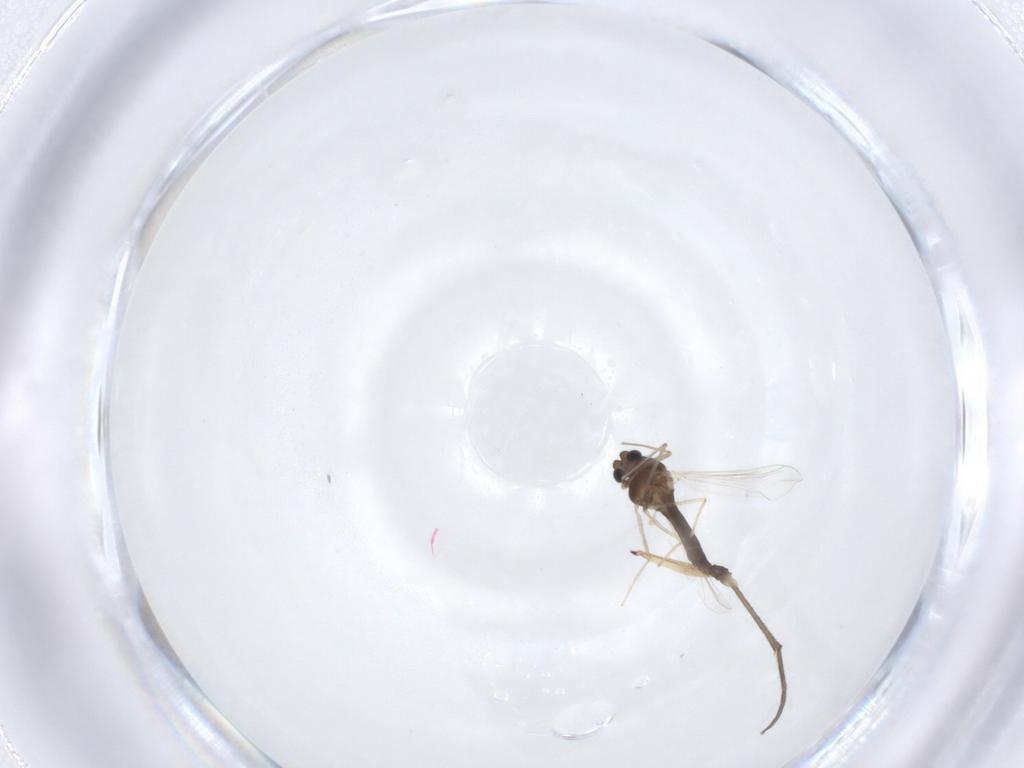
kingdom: Animalia
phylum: Arthropoda
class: Insecta
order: Diptera
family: Chironomidae
